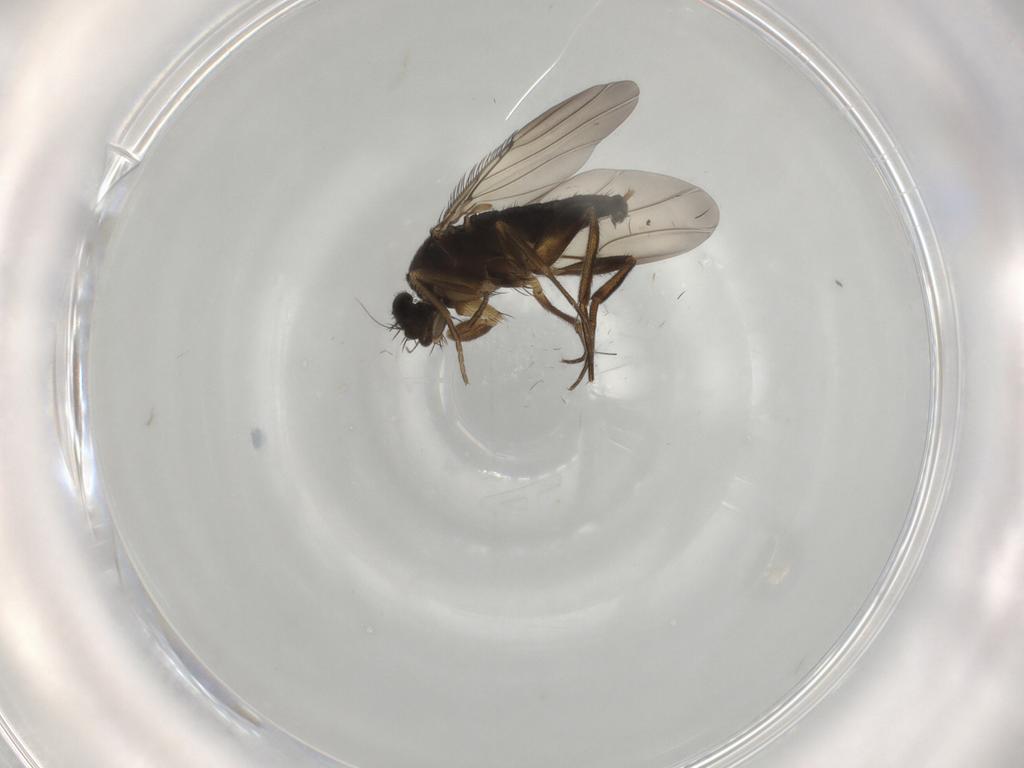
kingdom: Animalia
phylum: Arthropoda
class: Insecta
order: Diptera
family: Phoridae
